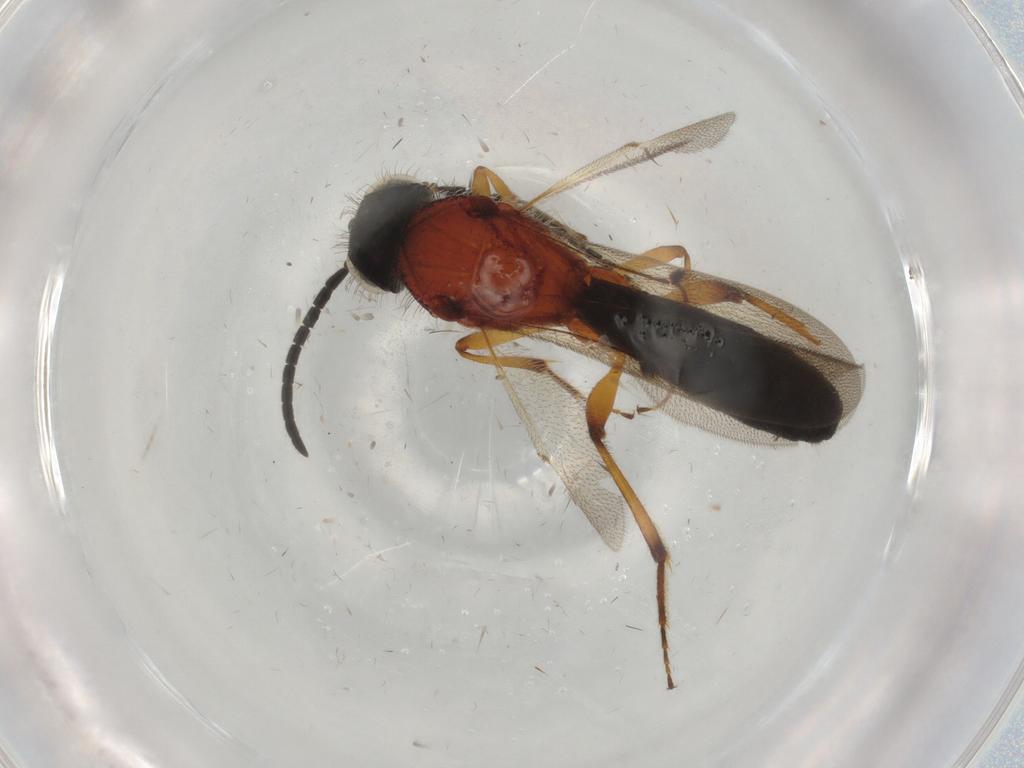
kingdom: Animalia
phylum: Arthropoda
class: Insecta
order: Hymenoptera
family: Scelionidae
